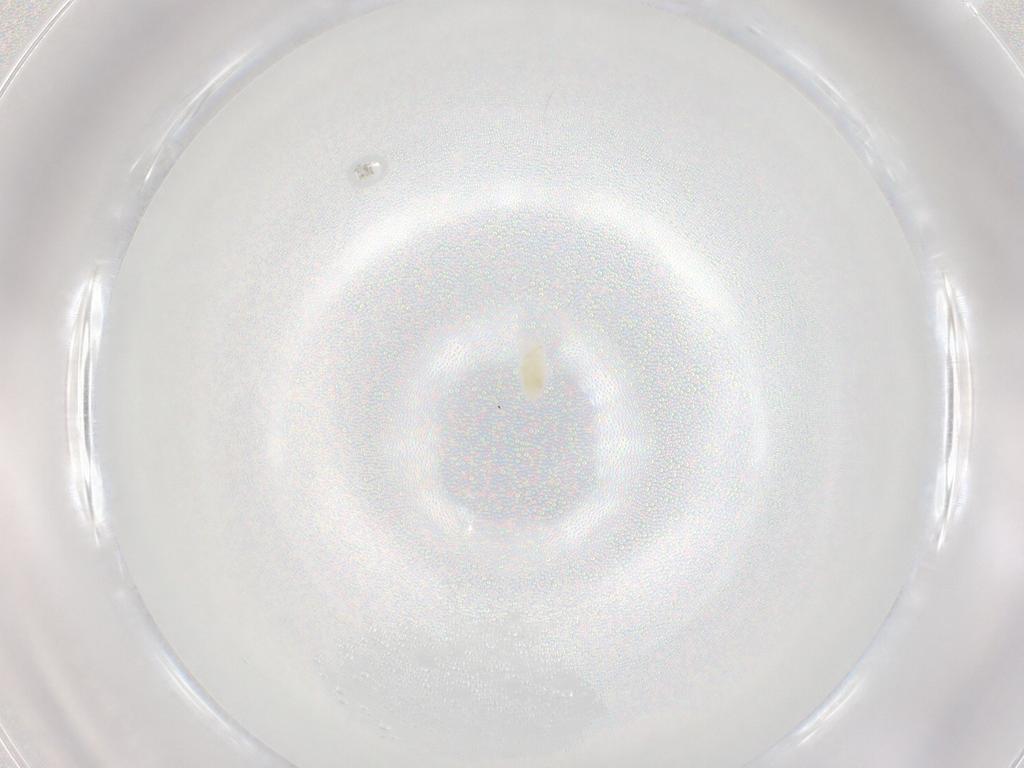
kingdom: Animalia
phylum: Arthropoda
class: Arachnida
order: Trombidiformes
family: Eupodidae
